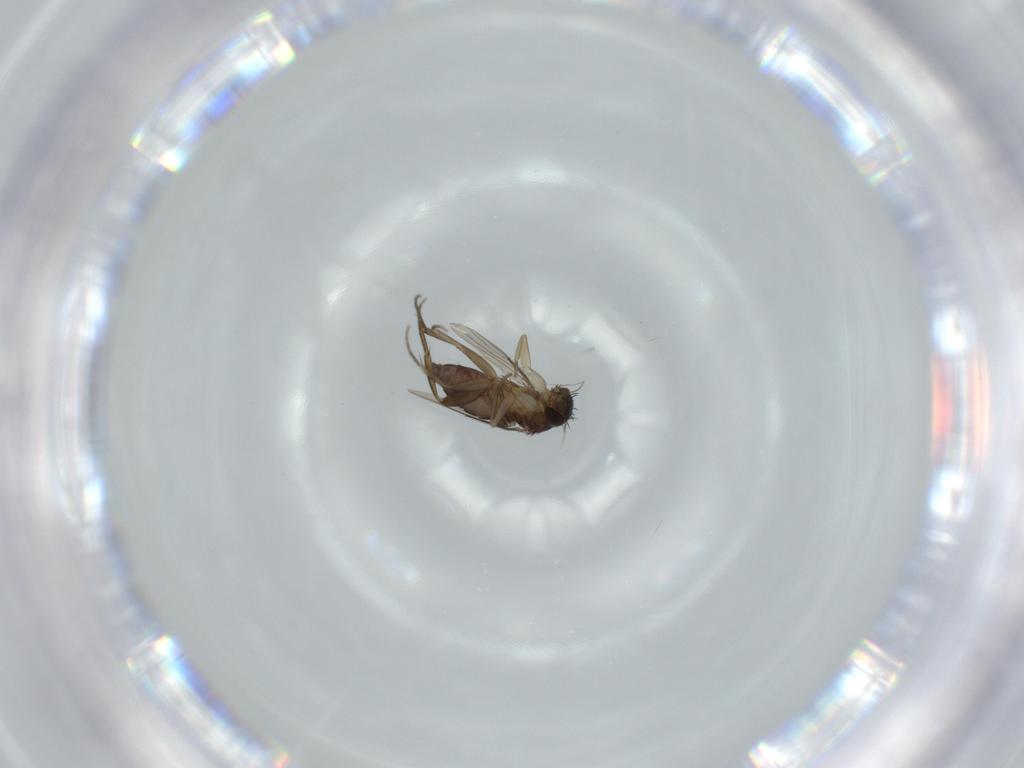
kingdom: Animalia
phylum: Arthropoda
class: Insecta
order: Diptera
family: Phoridae
